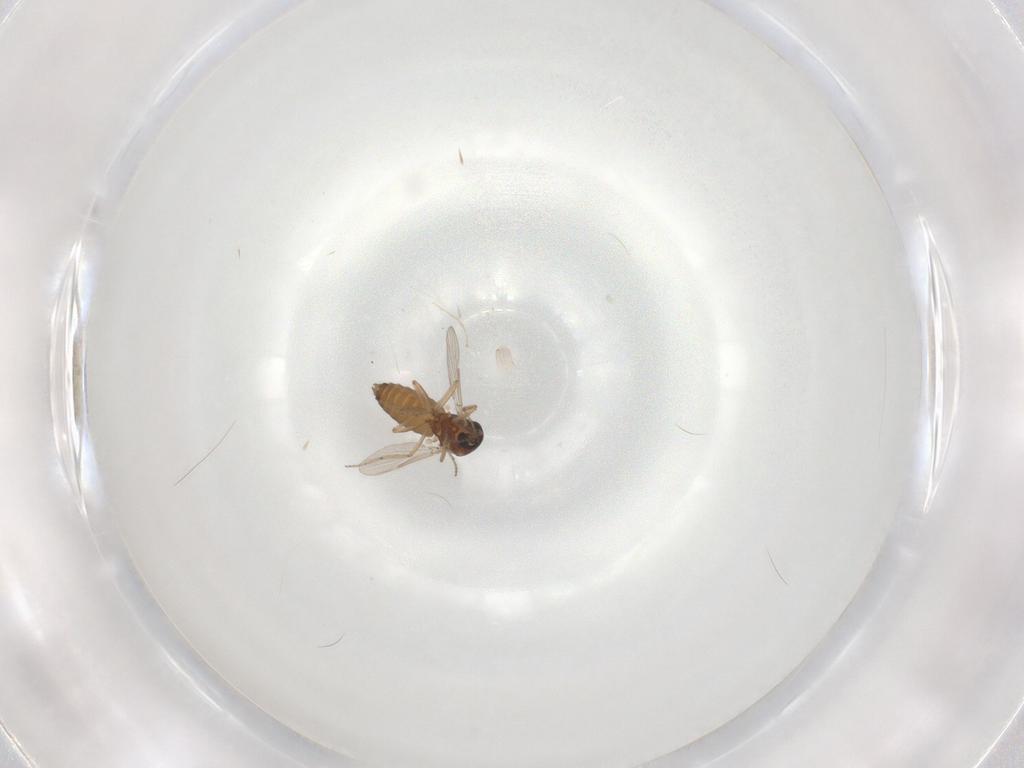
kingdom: Animalia
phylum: Arthropoda
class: Insecta
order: Diptera
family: Ceratopogonidae
